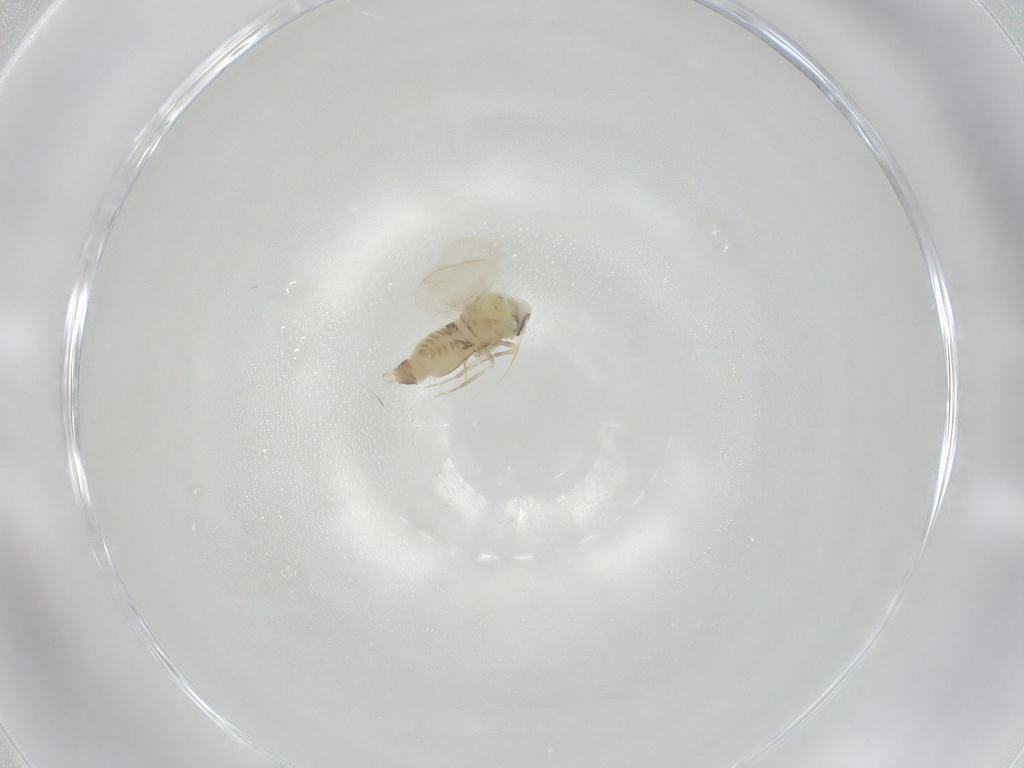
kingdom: Animalia
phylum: Arthropoda
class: Insecta
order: Hemiptera
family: Aleyrodidae
